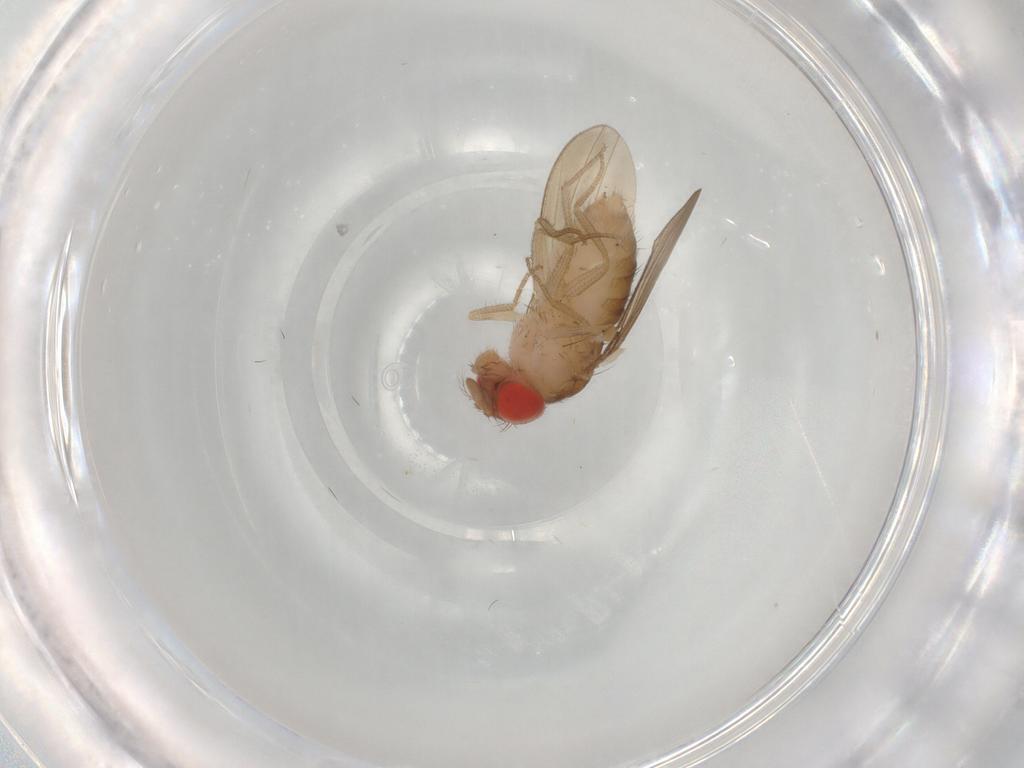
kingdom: Animalia
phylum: Arthropoda
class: Insecta
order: Diptera
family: Drosophilidae
